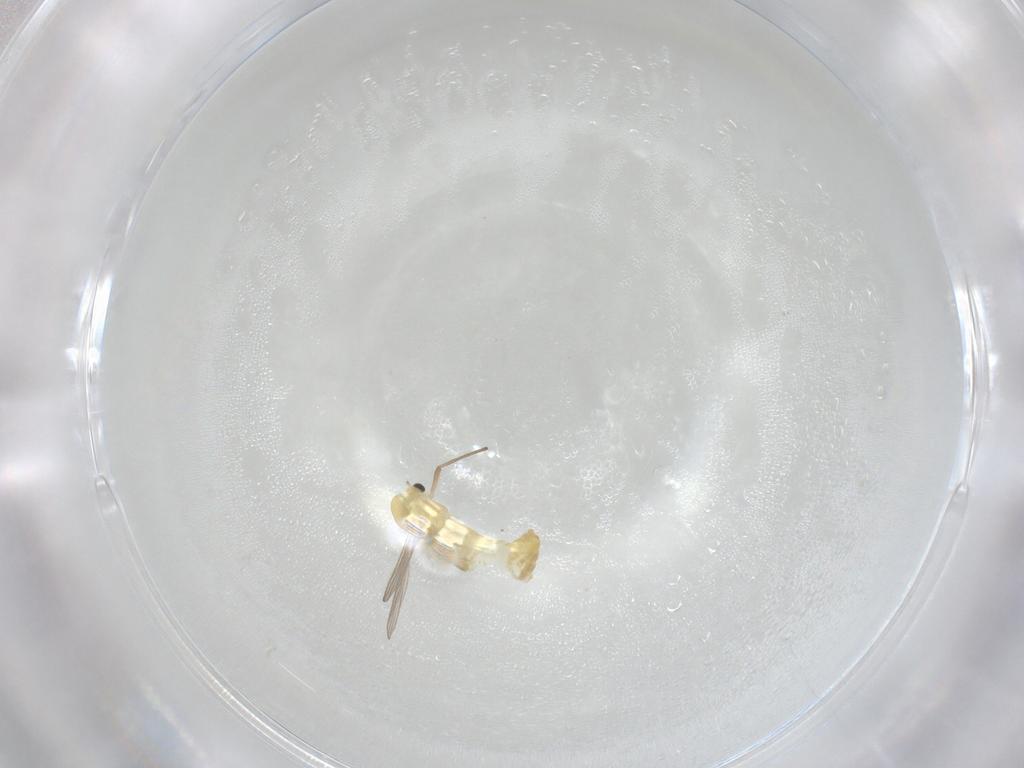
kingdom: Animalia
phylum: Arthropoda
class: Insecta
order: Diptera
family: Chironomidae
